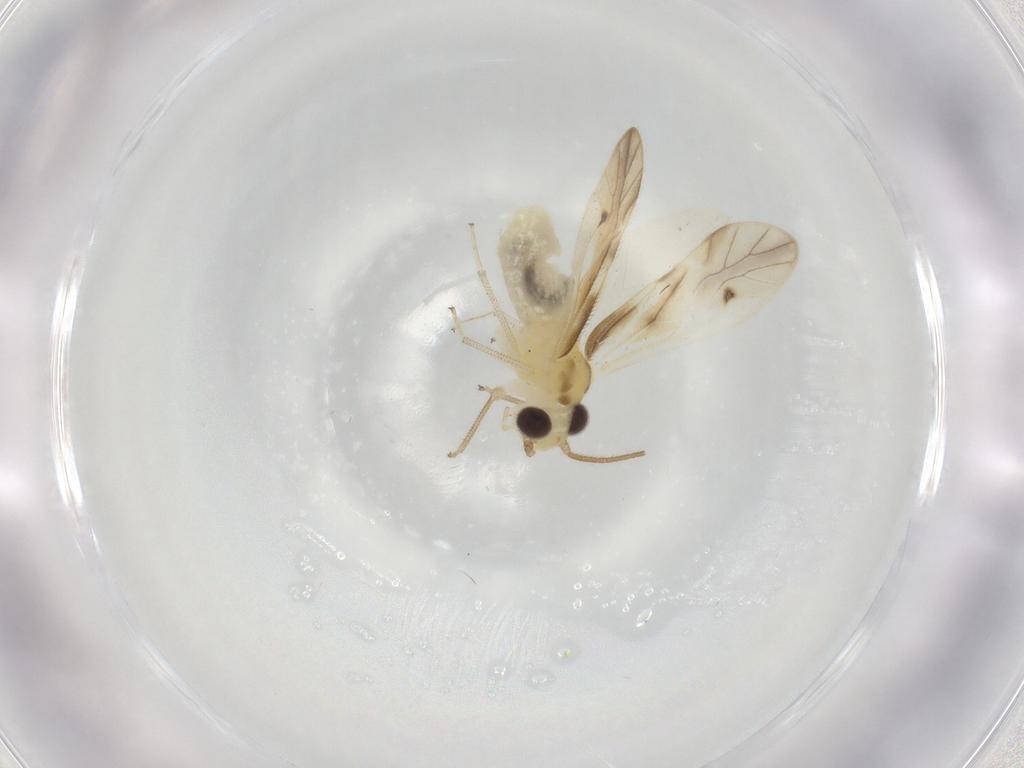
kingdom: Animalia
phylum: Arthropoda
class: Insecta
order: Psocodea
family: Caeciliusidae
